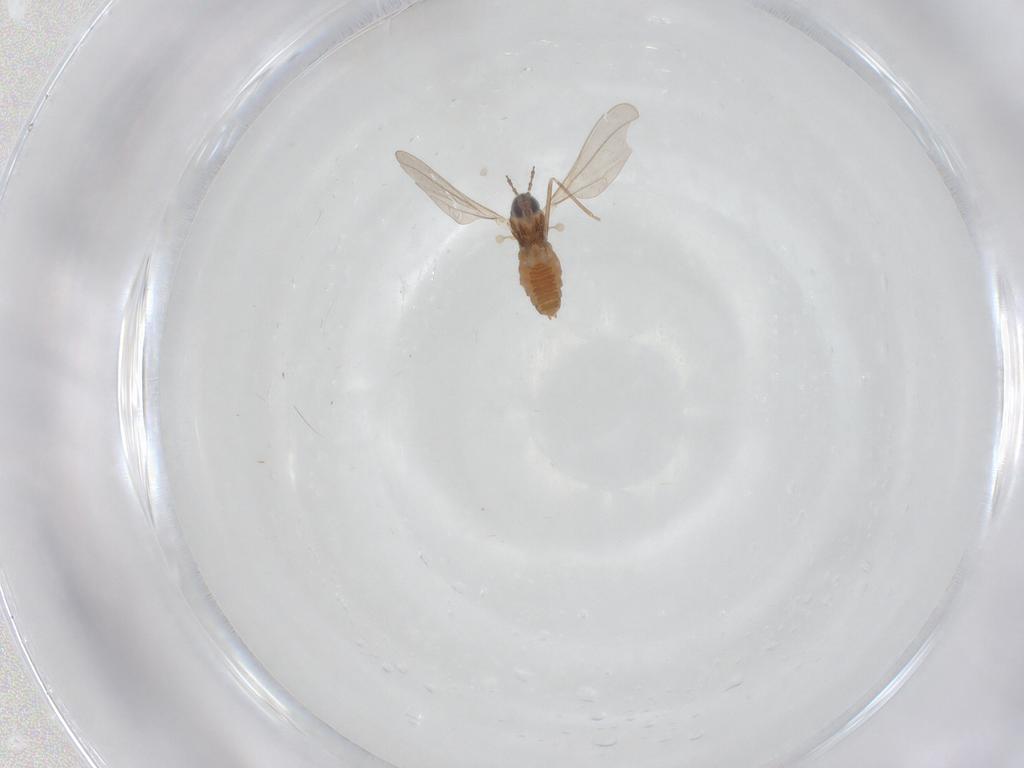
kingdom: Animalia
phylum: Arthropoda
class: Insecta
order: Diptera
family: Cecidomyiidae
